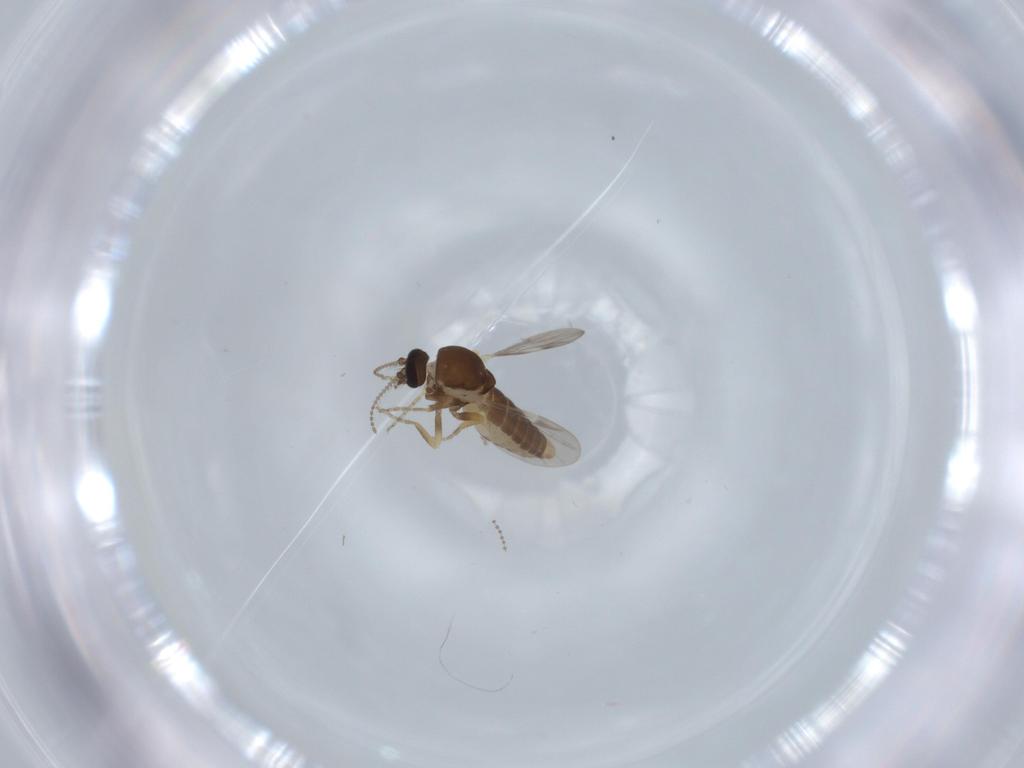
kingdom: Animalia
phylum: Arthropoda
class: Insecta
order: Diptera
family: Ceratopogonidae
